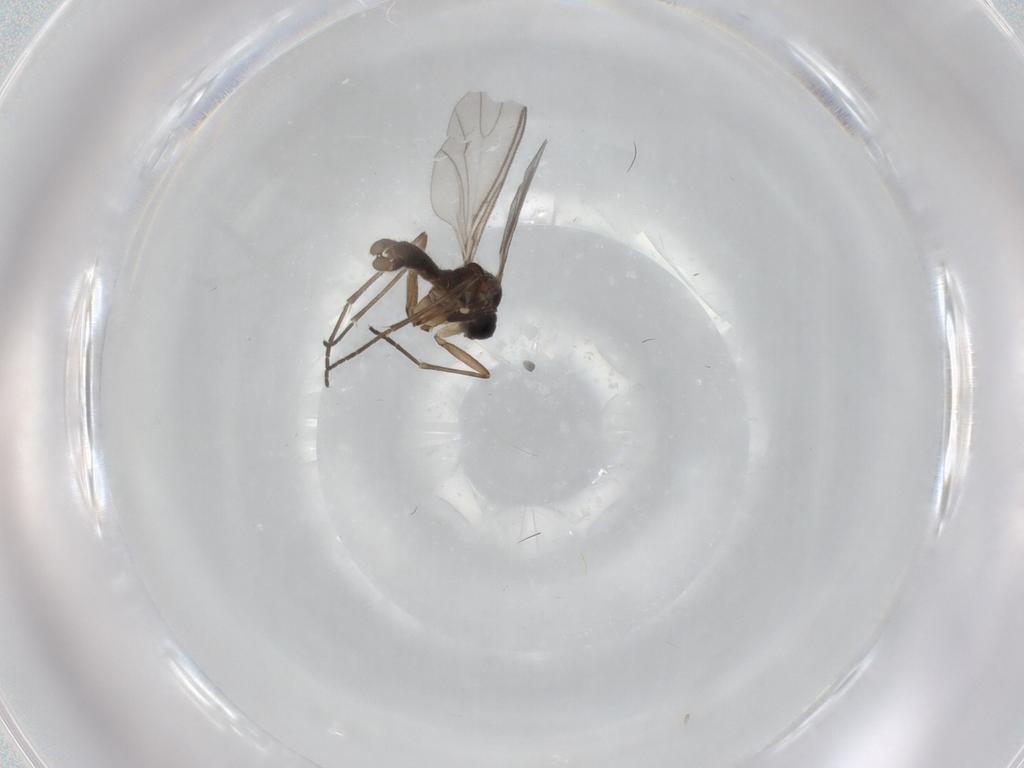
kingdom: Animalia
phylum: Arthropoda
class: Insecta
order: Diptera
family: Sciaridae
